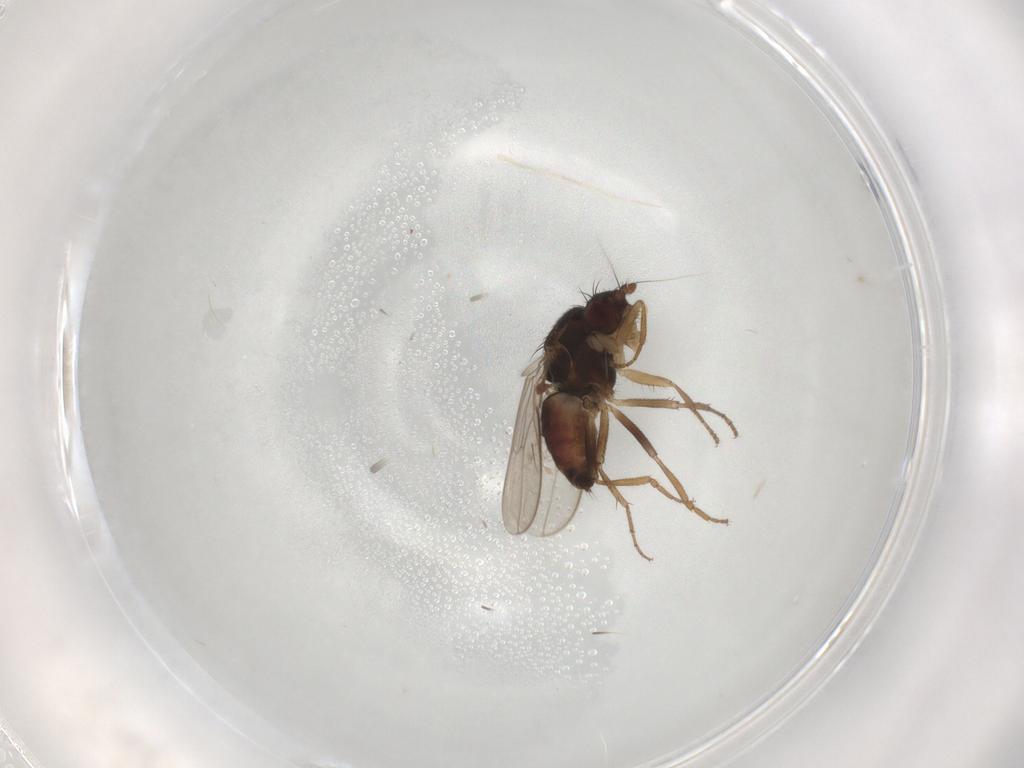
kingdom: Animalia
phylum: Arthropoda
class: Insecta
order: Diptera
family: Sphaeroceridae
